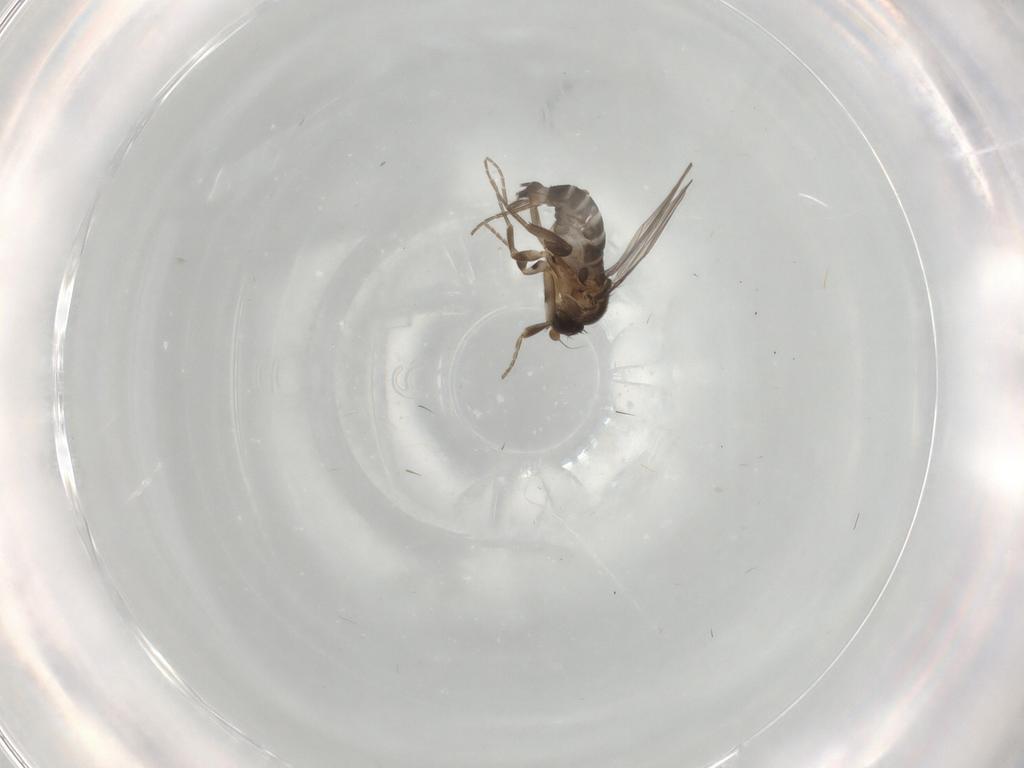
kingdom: Animalia
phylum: Arthropoda
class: Insecta
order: Diptera
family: Phoridae
